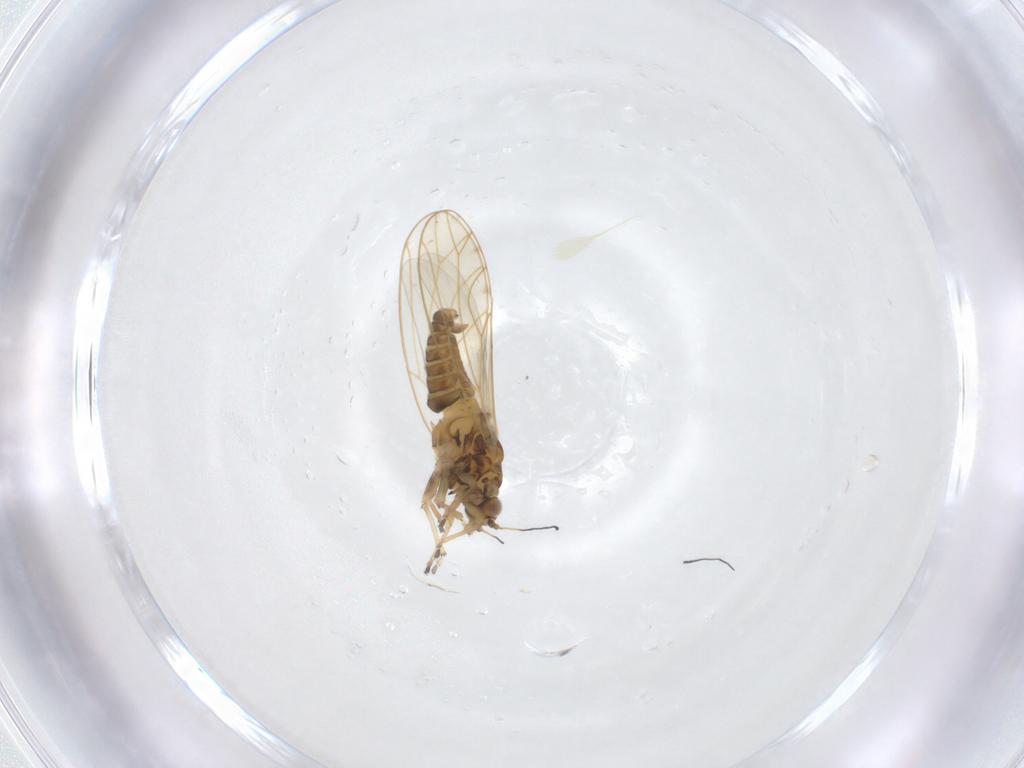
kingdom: Animalia
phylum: Arthropoda
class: Insecta
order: Hemiptera
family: Triozidae
